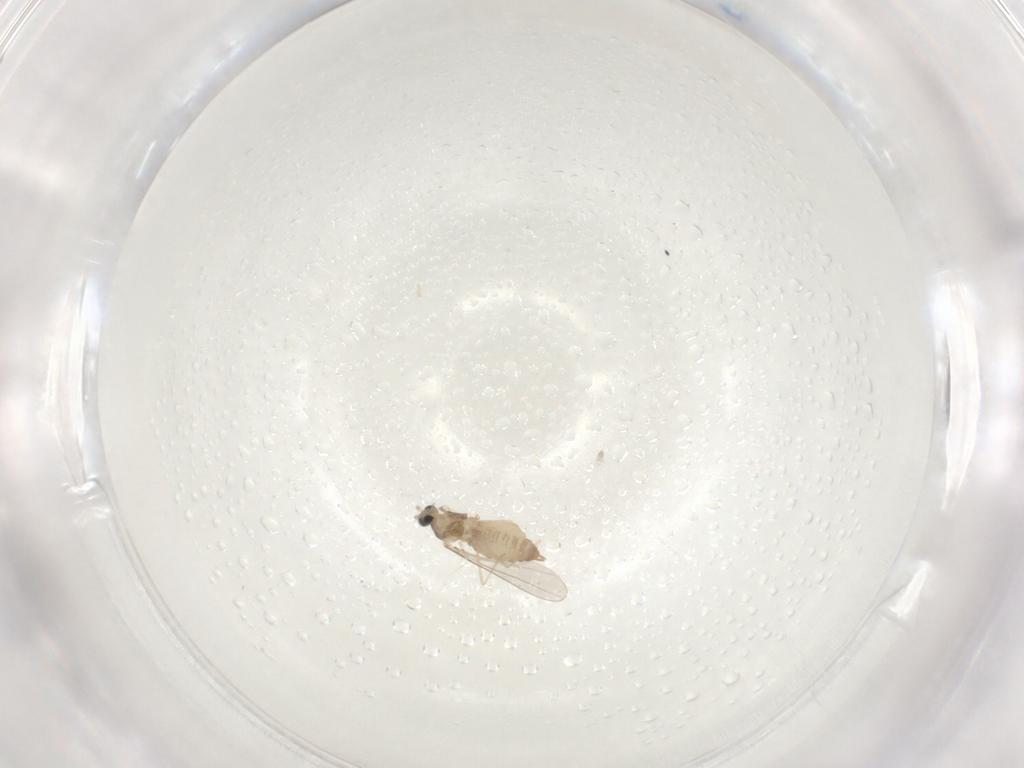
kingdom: Animalia
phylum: Arthropoda
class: Insecta
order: Diptera
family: Cecidomyiidae
